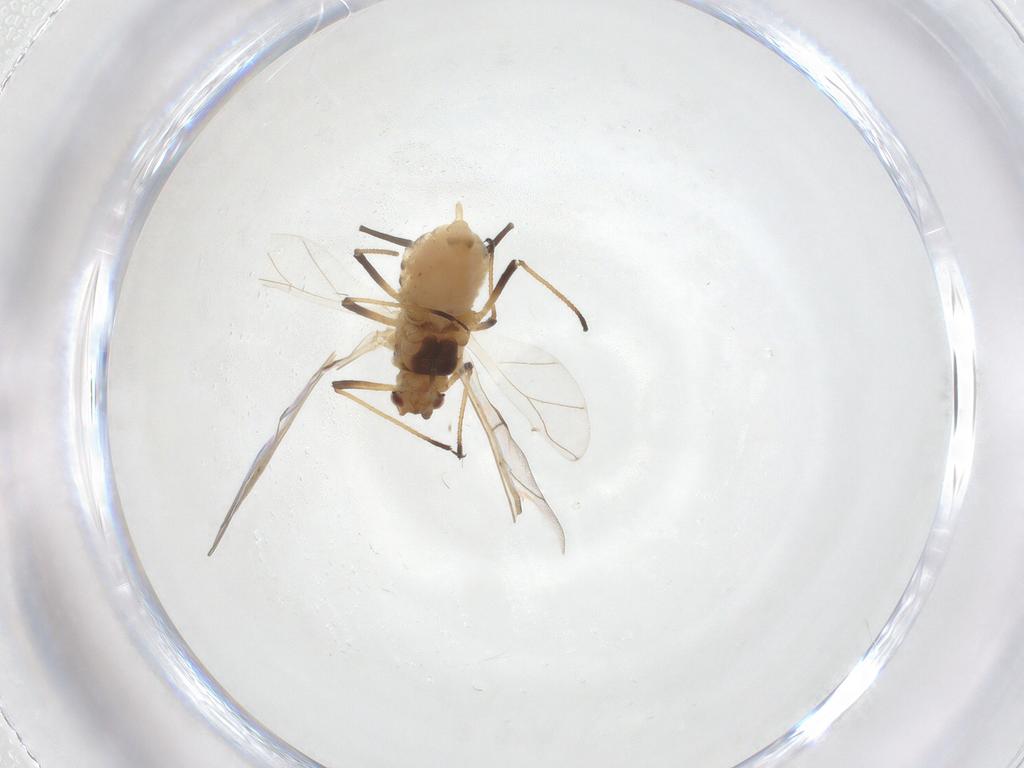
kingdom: Animalia
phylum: Arthropoda
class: Insecta
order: Hemiptera
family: Aphididae
